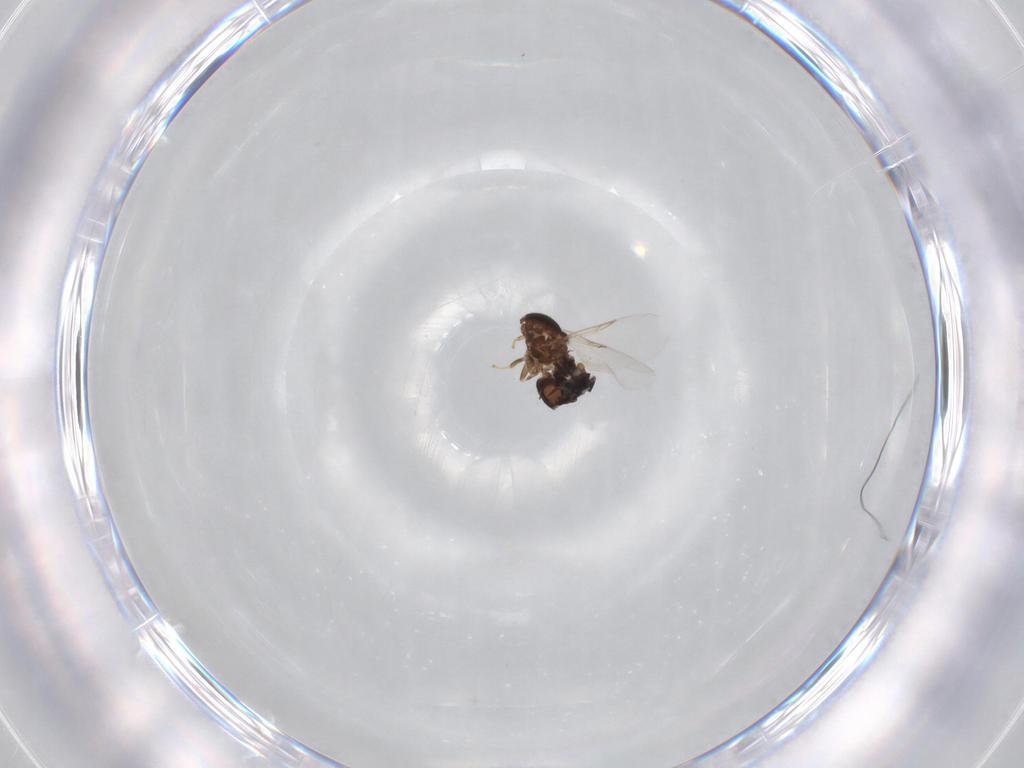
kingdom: Animalia
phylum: Arthropoda
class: Insecta
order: Diptera
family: Scatopsidae
